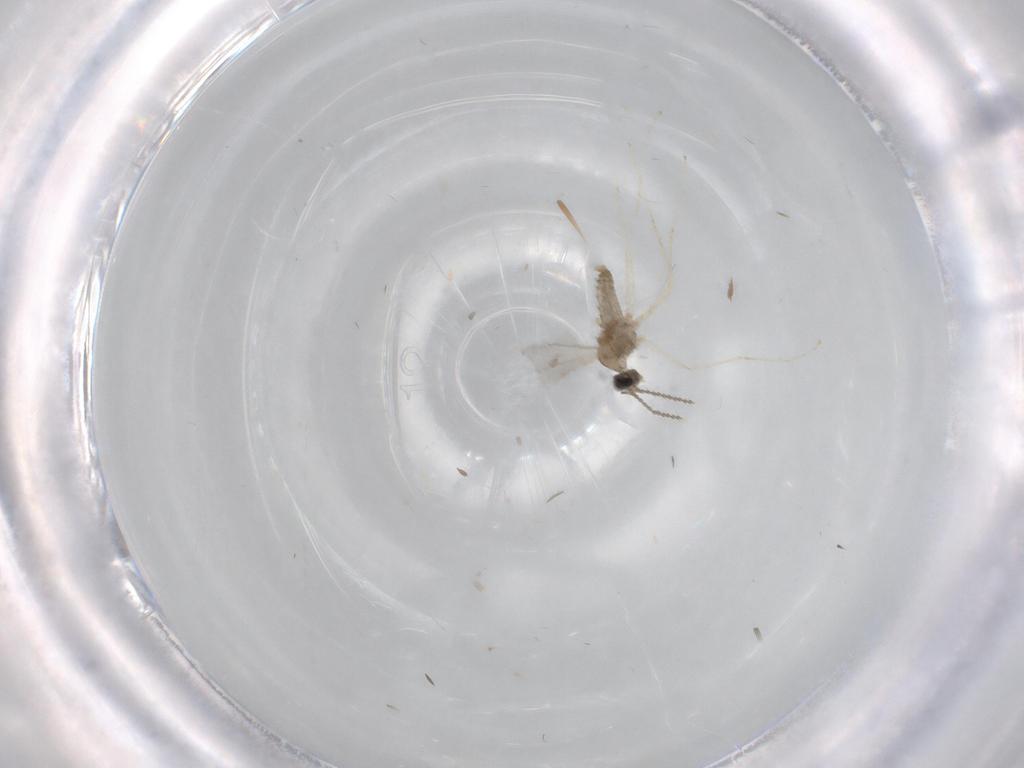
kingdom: Animalia
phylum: Arthropoda
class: Insecta
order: Diptera
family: Cecidomyiidae
